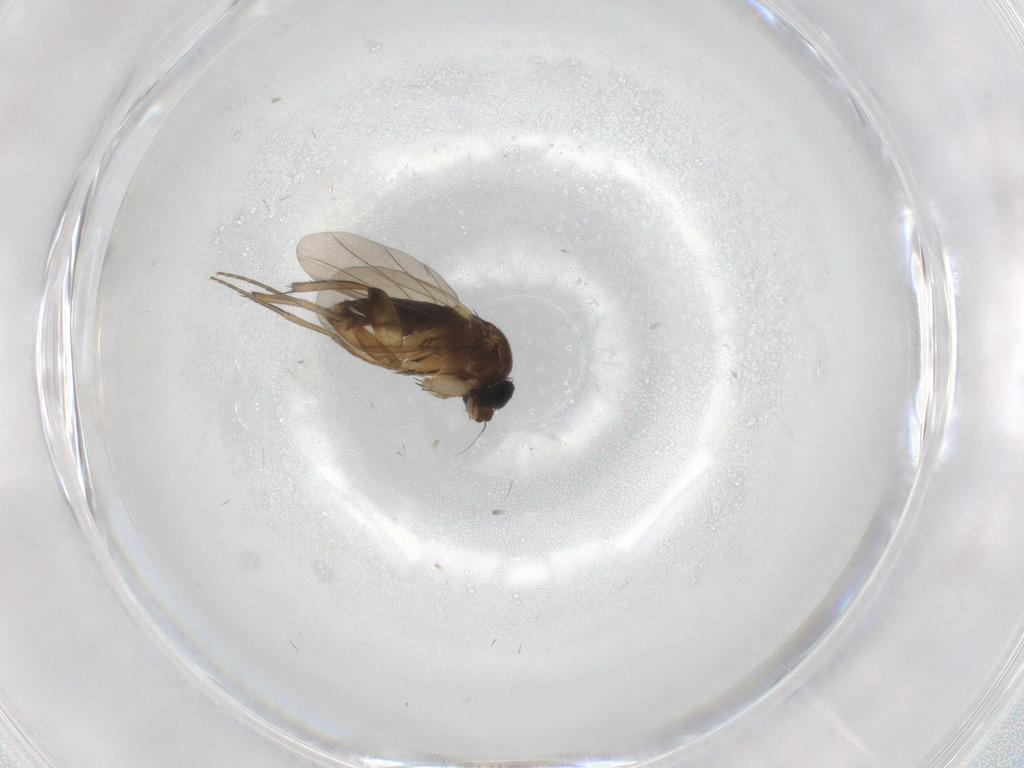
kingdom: Animalia
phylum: Arthropoda
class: Insecta
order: Diptera
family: Phoridae
